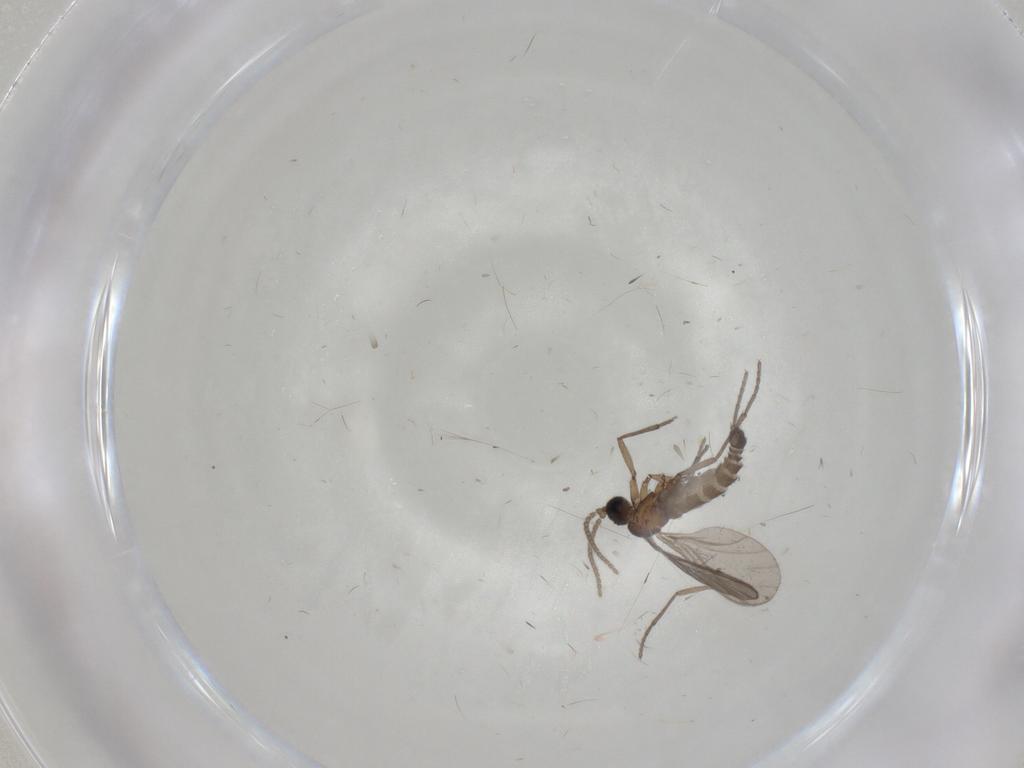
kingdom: Animalia
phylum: Arthropoda
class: Insecta
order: Diptera
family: Sciaridae
